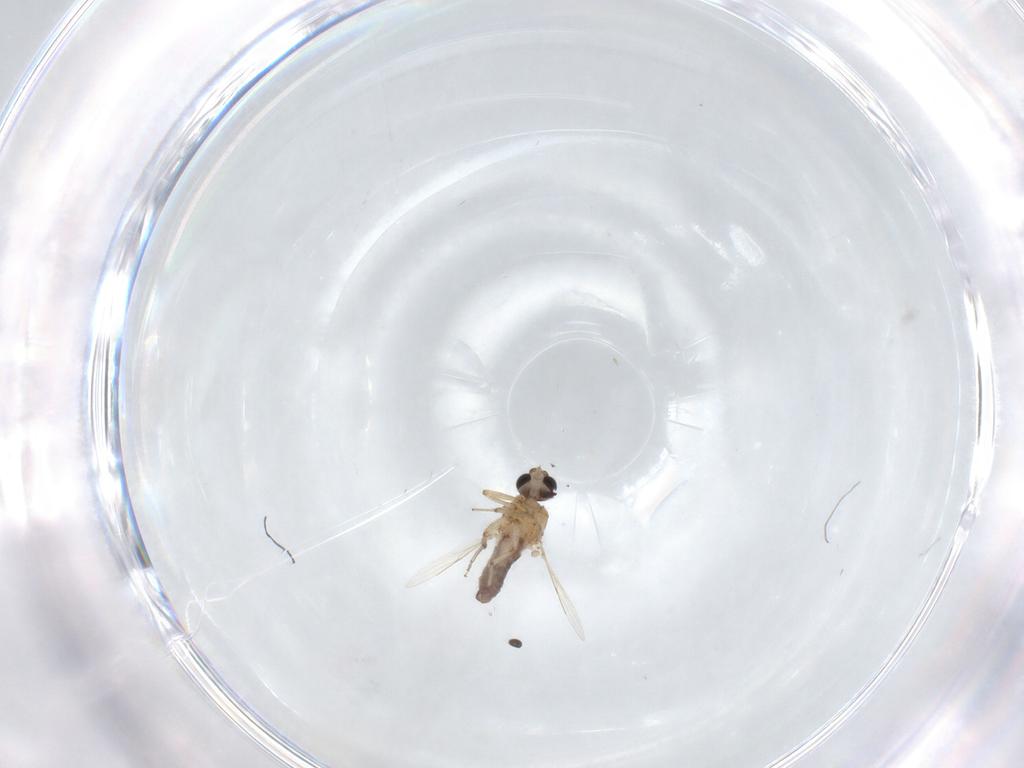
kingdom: Animalia
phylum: Arthropoda
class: Insecta
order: Diptera
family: Ceratopogonidae
